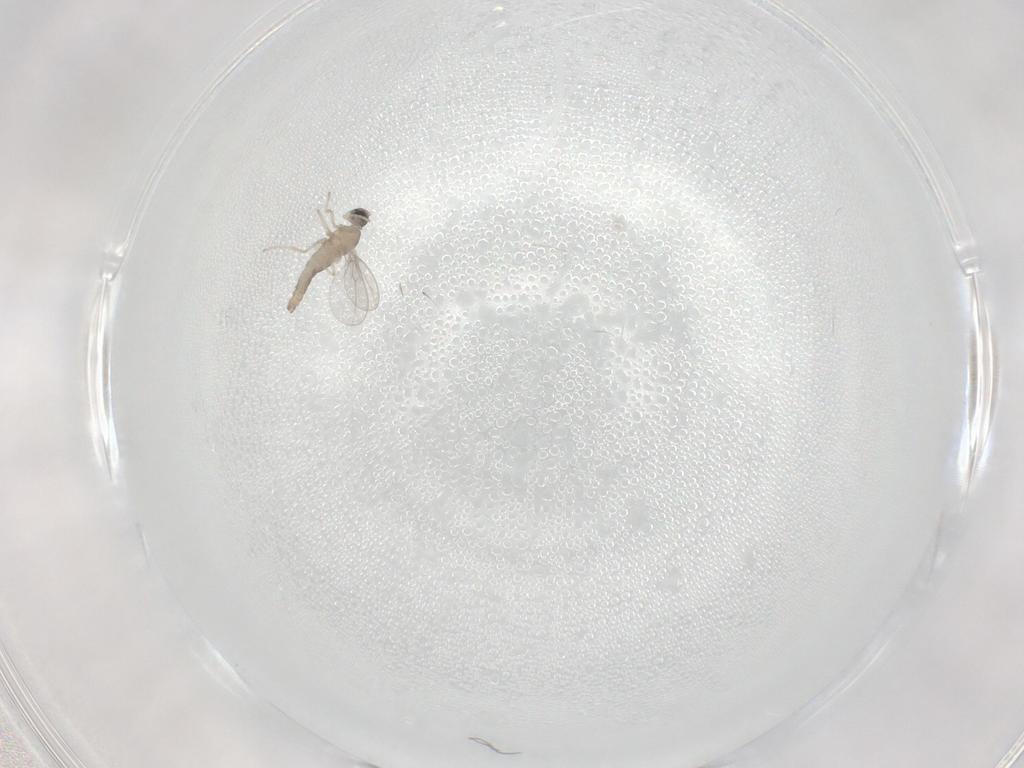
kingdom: Animalia
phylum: Arthropoda
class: Insecta
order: Diptera
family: Cecidomyiidae
